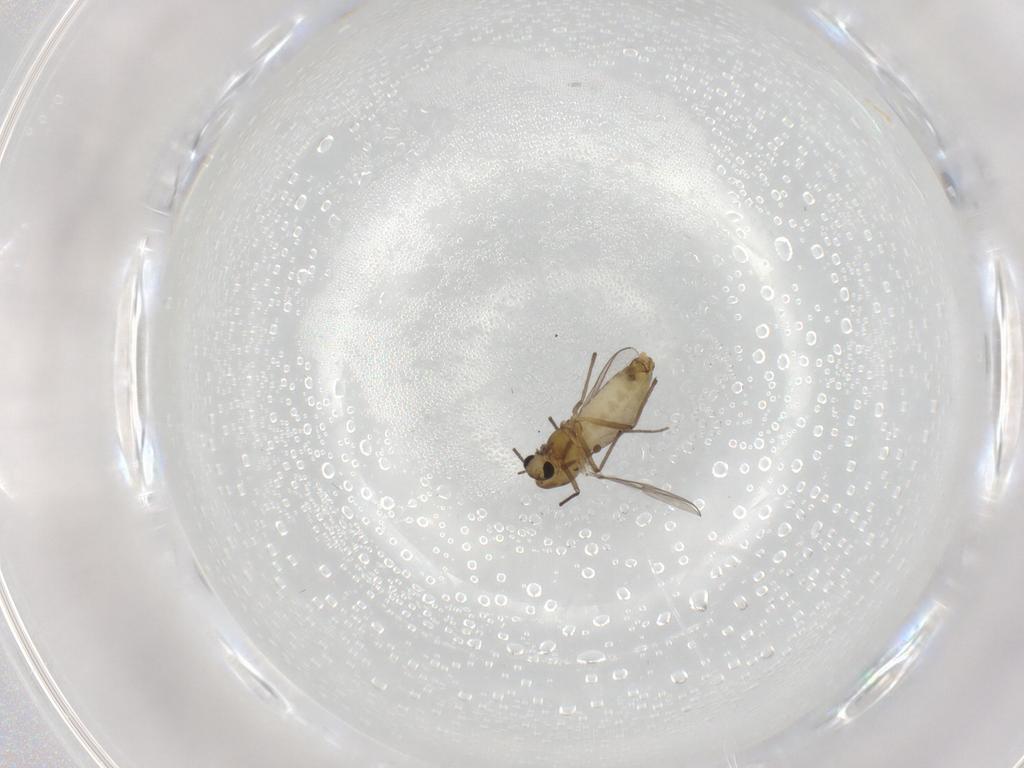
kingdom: Animalia
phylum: Arthropoda
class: Insecta
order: Diptera
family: Chironomidae
